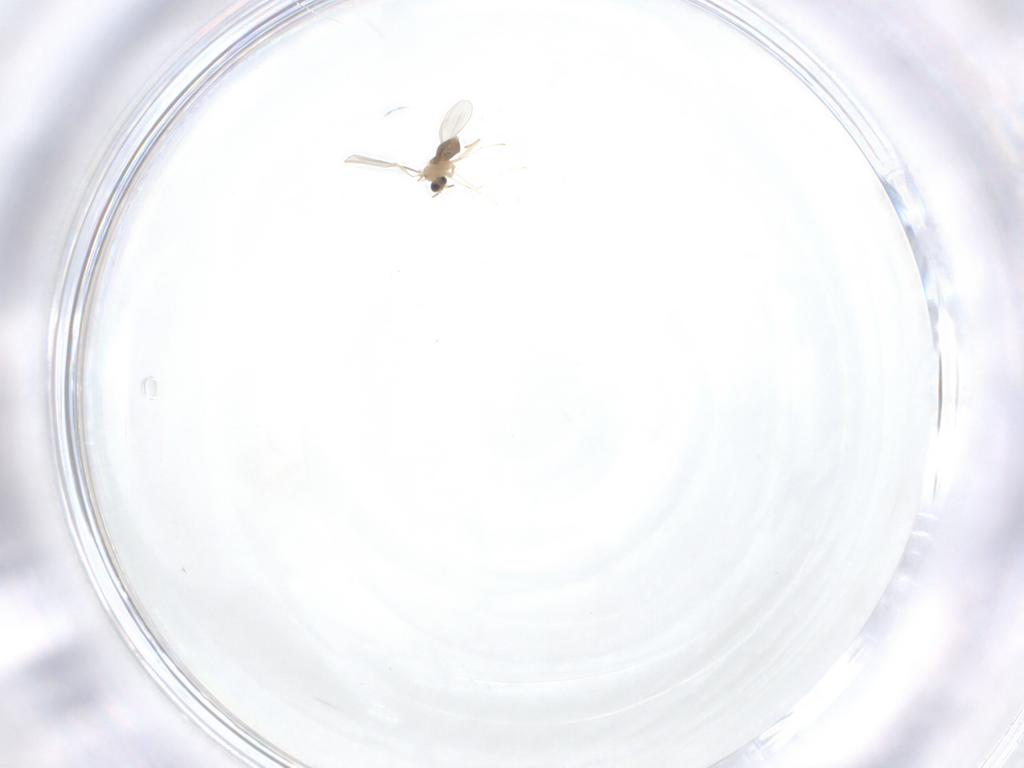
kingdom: Animalia
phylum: Arthropoda
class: Insecta
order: Diptera
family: Cecidomyiidae
